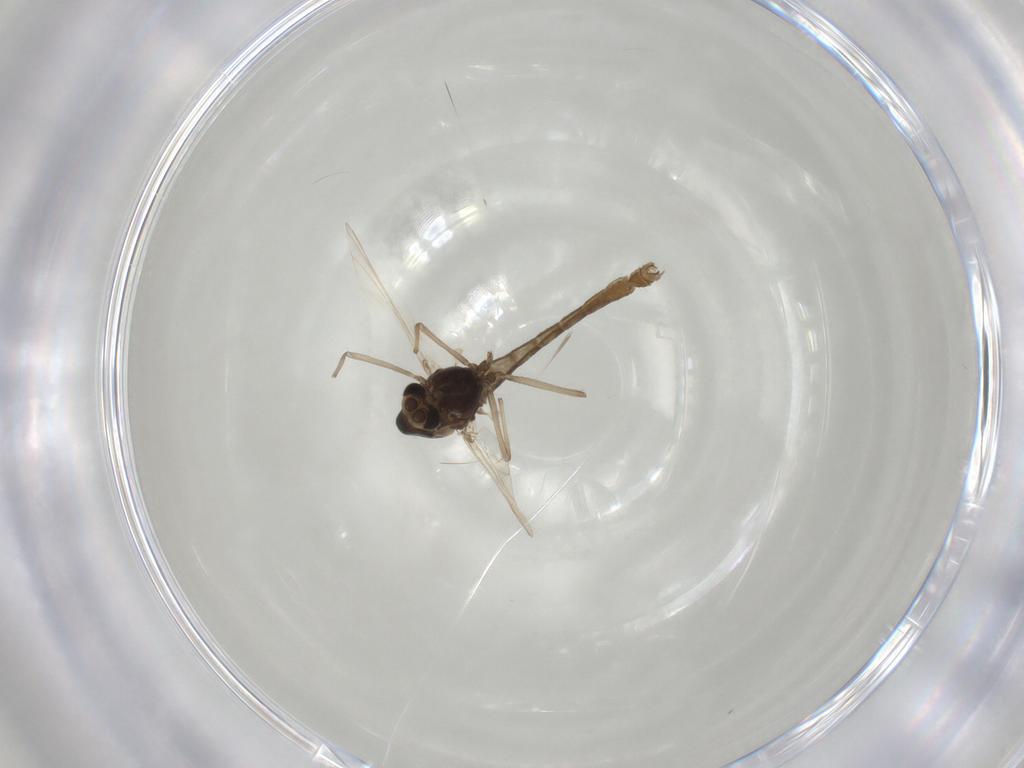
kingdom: Animalia
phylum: Arthropoda
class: Insecta
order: Diptera
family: Chironomidae
